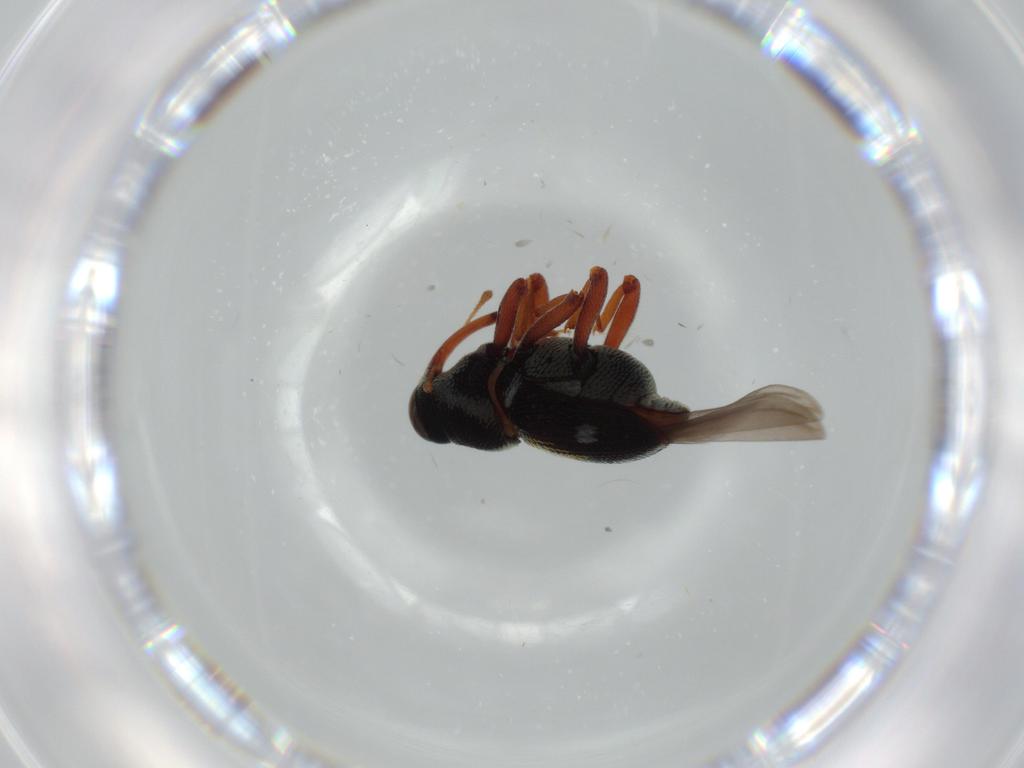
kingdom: Animalia
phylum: Arthropoda
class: Insecta
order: Coleoptera
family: Chrysomelidae
